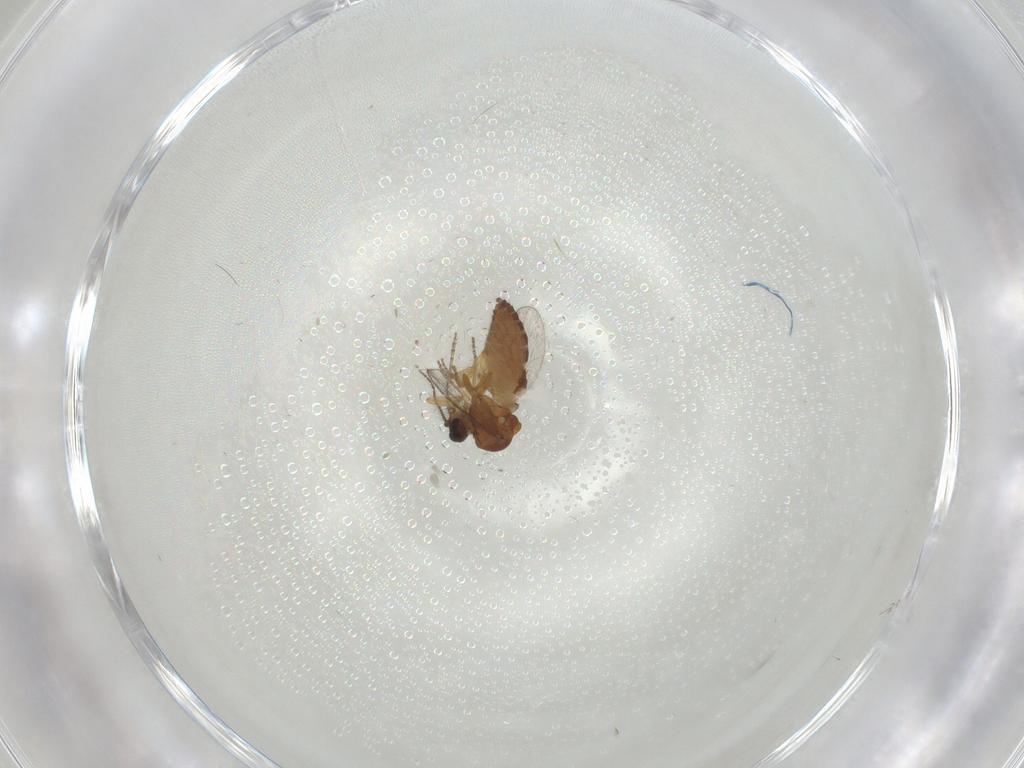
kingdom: Animalia
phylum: Arthropoda
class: Insecta
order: Diptera
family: Ceratopogonidae
